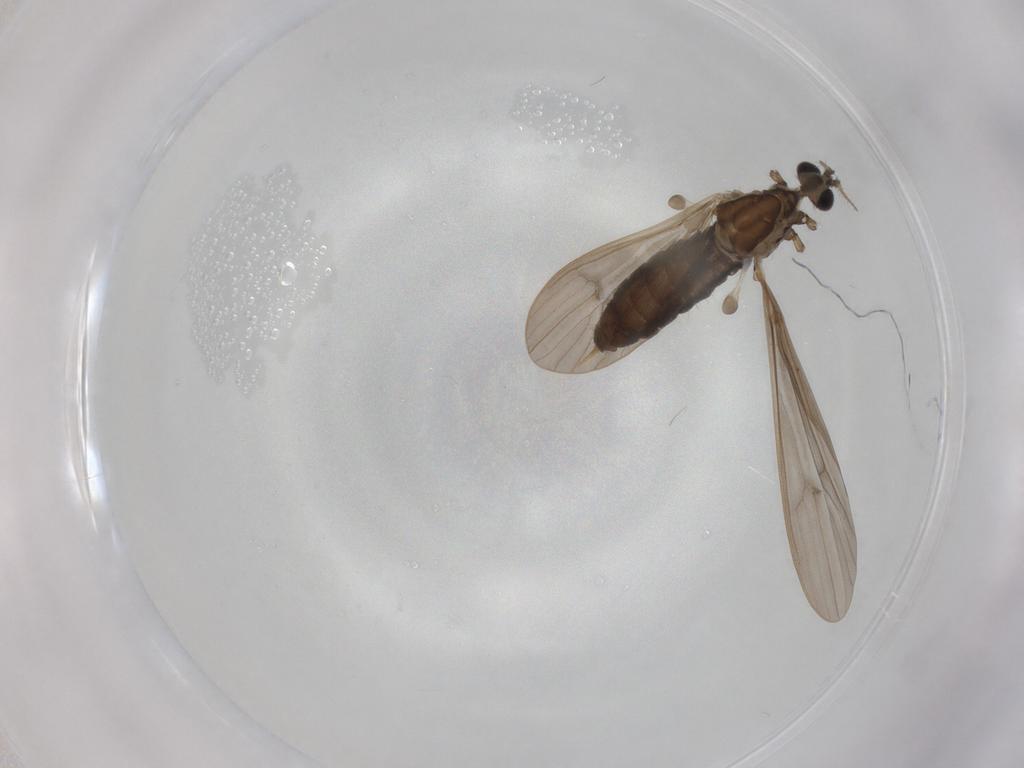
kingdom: Animalia
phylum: Arthropoda
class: Insecta
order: Diptera
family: Limoniidae
